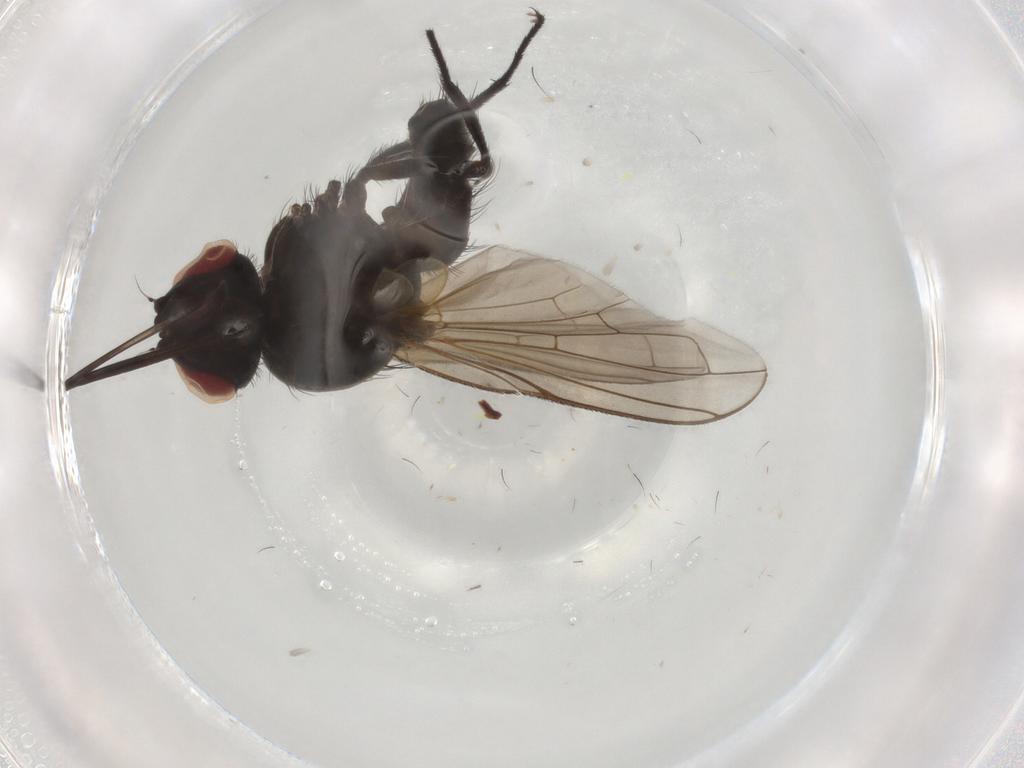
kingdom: Animalia
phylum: Arthropoda
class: Insecta
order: Diptera
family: Tachinidae
